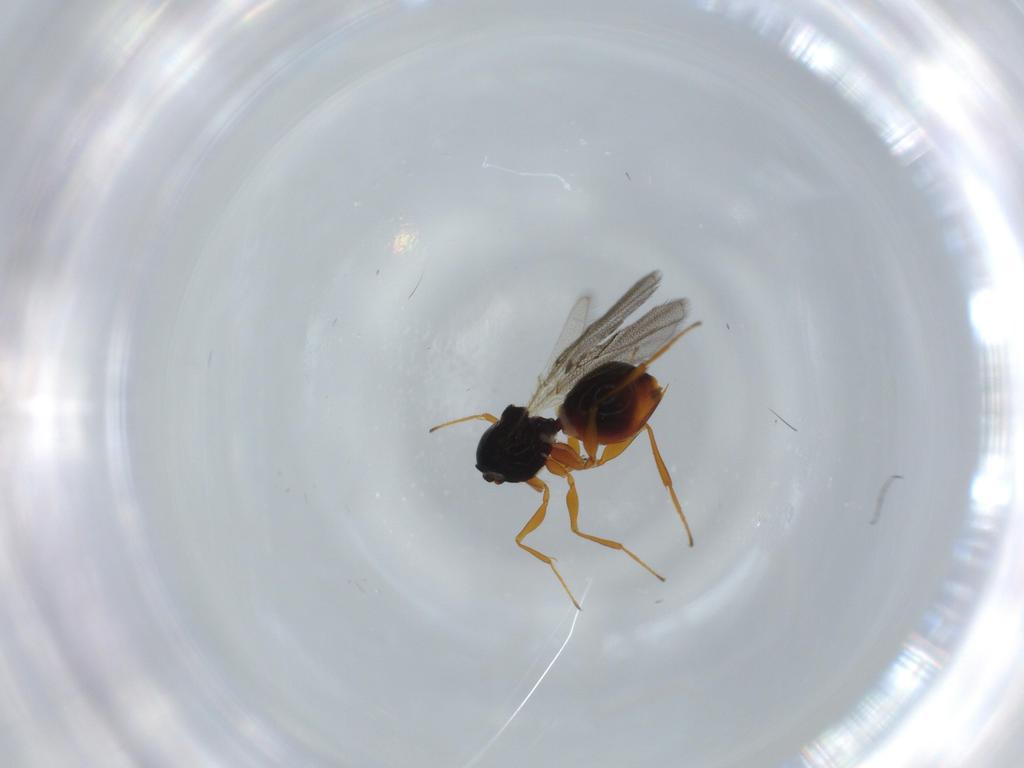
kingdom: Animalia
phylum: Arthropoda
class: Insecta
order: Hymenoptera
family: Figitidae
